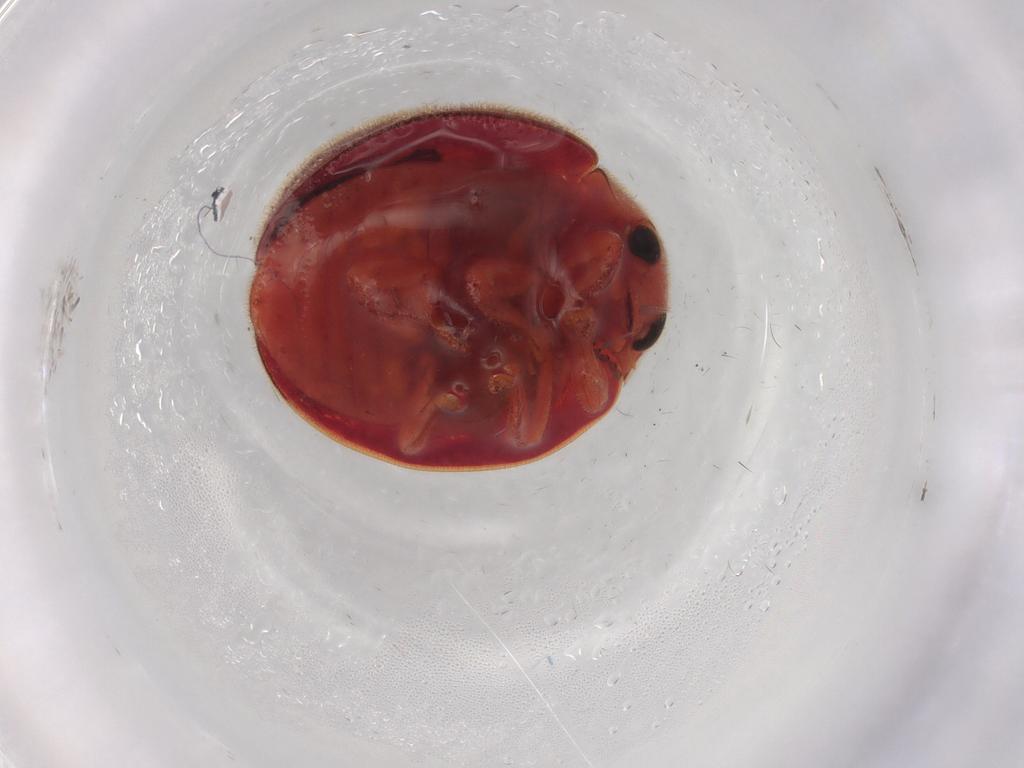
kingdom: Animalia
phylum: Arthropoda
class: Insecta
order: Coleoptera
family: Coccinellidae
